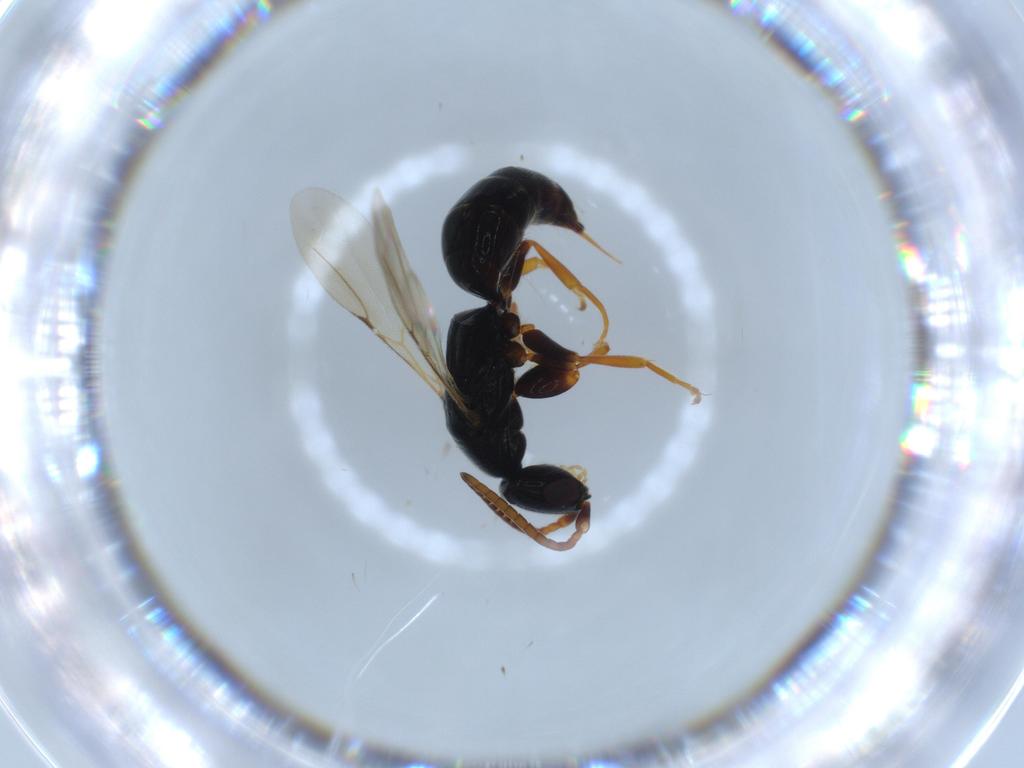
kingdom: Animalia
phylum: Arthropoda
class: Insecta
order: Hymenoptera
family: Bethylidae
